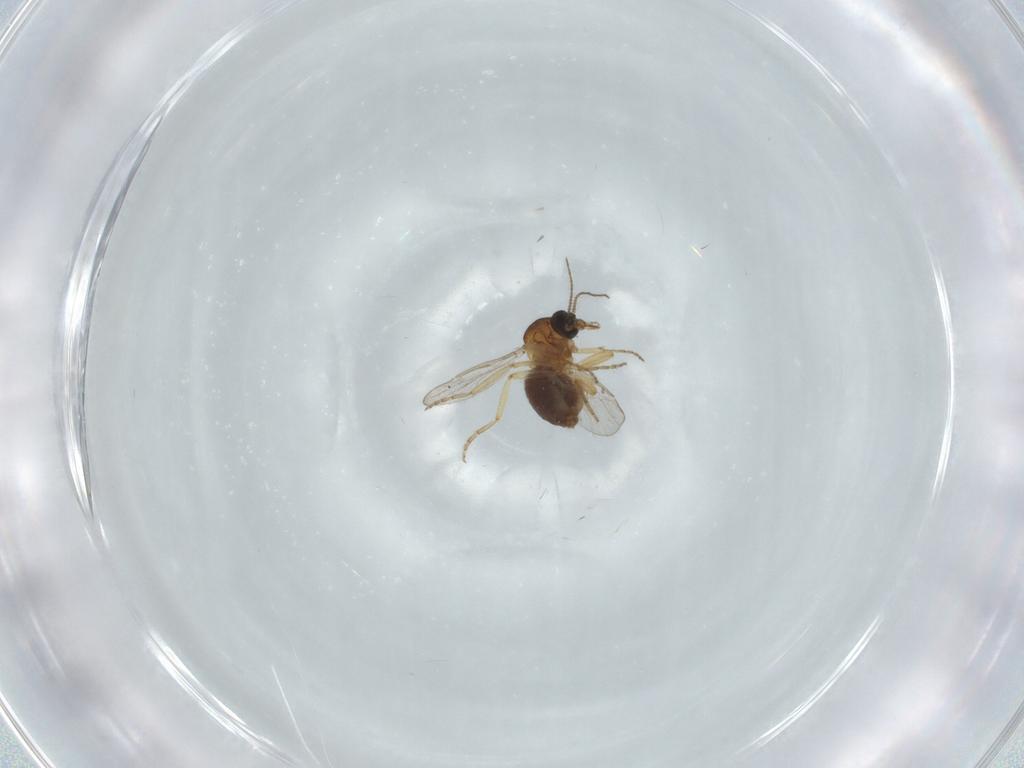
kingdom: Animalia
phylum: Arthropoda
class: Insecta
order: Diptera
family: Ceratopogonidae
